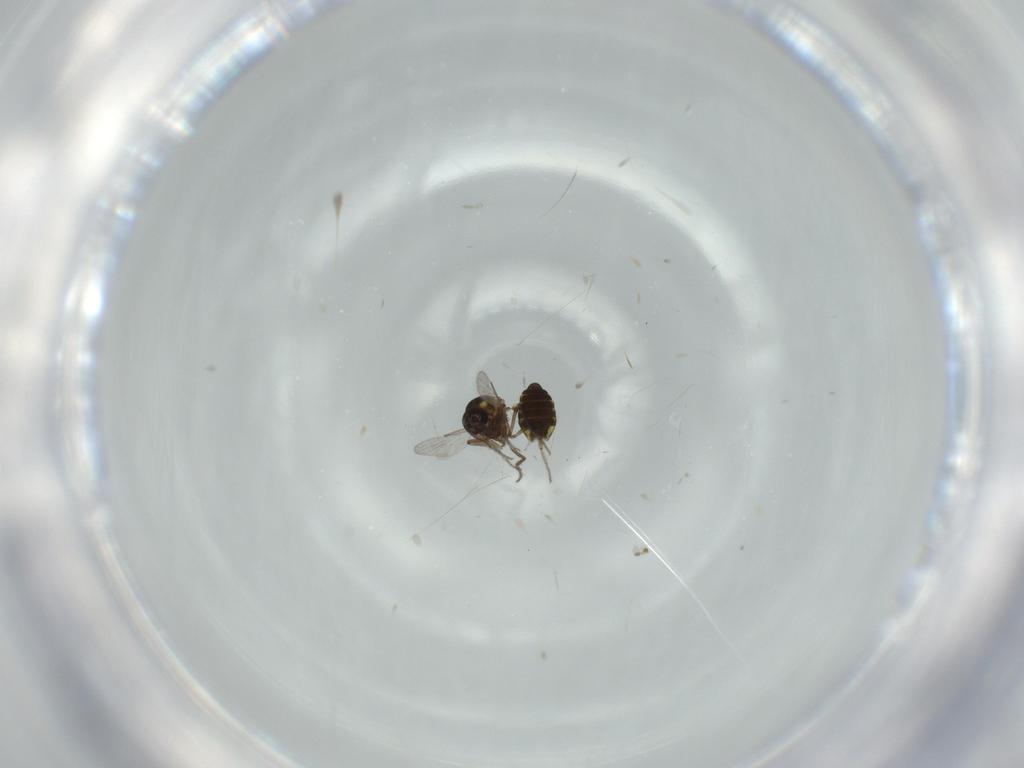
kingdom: Animalia
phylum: Arthropoda
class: Insecta
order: Diptera
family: Ceratopogonidae
